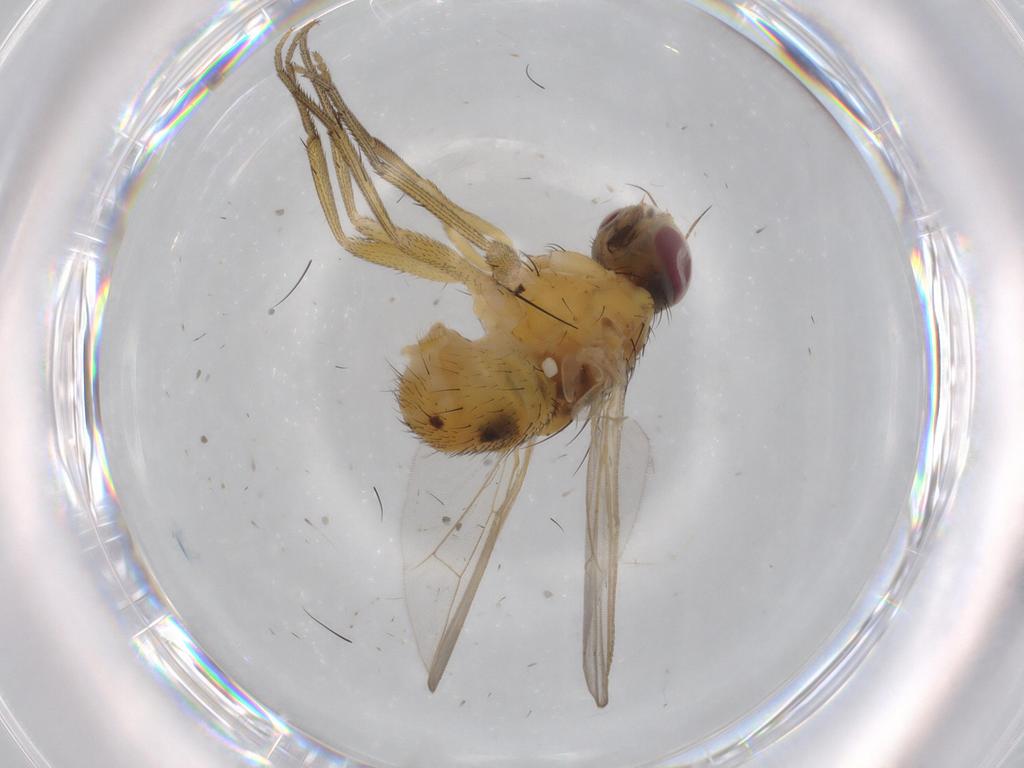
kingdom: Animalia
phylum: Arthropoda
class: Insecta
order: Diptera
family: Muscidae
